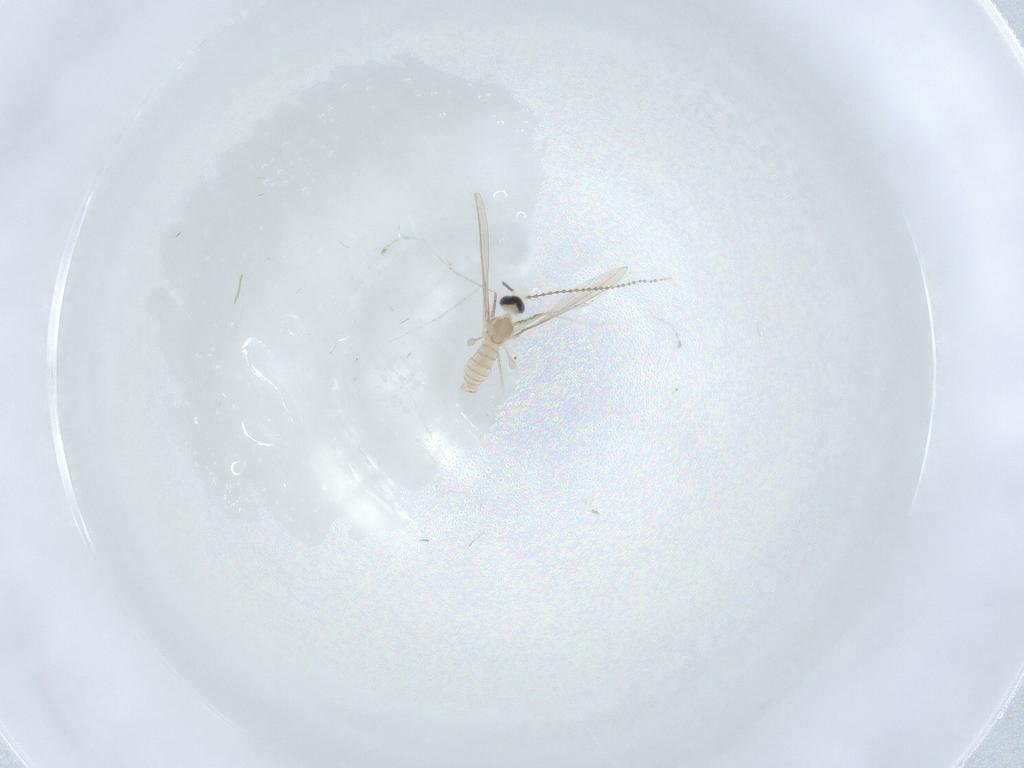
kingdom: Animalia
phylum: Arthropoda
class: Insecta
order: Diptera
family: Cecidomyiidae
